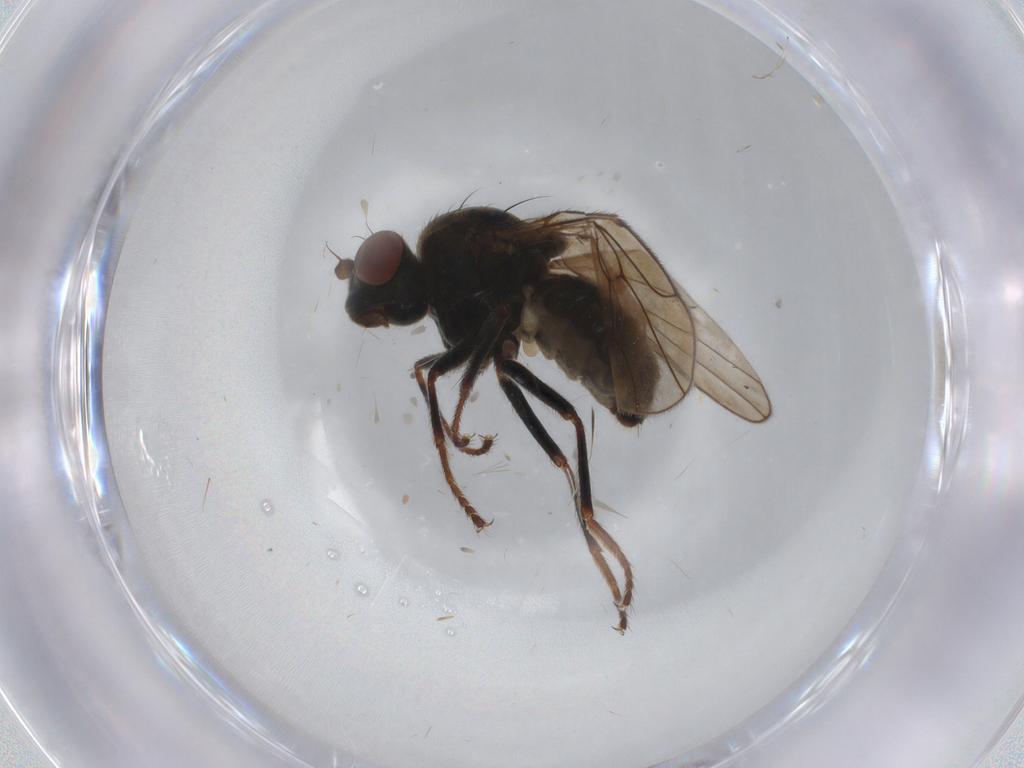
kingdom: Animalia
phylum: Arthropoda
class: Insecta
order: Diptera
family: Ephydridae
